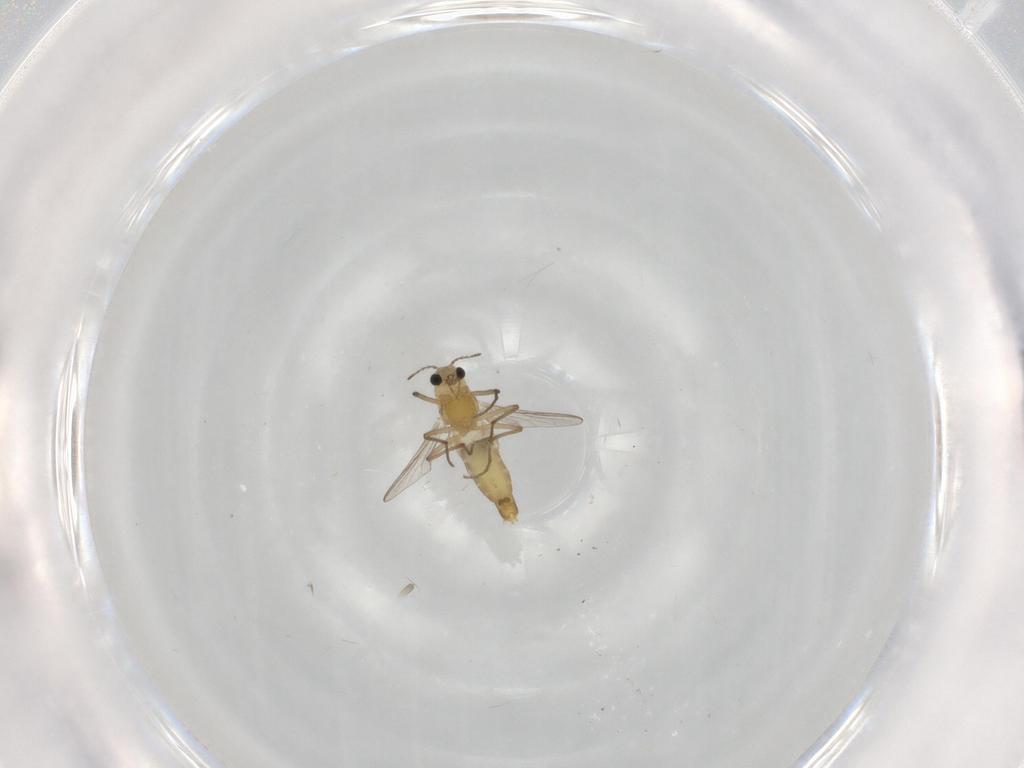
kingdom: Animalia
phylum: Arthropoda
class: Insecta
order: Diptera
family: Chironomidae
